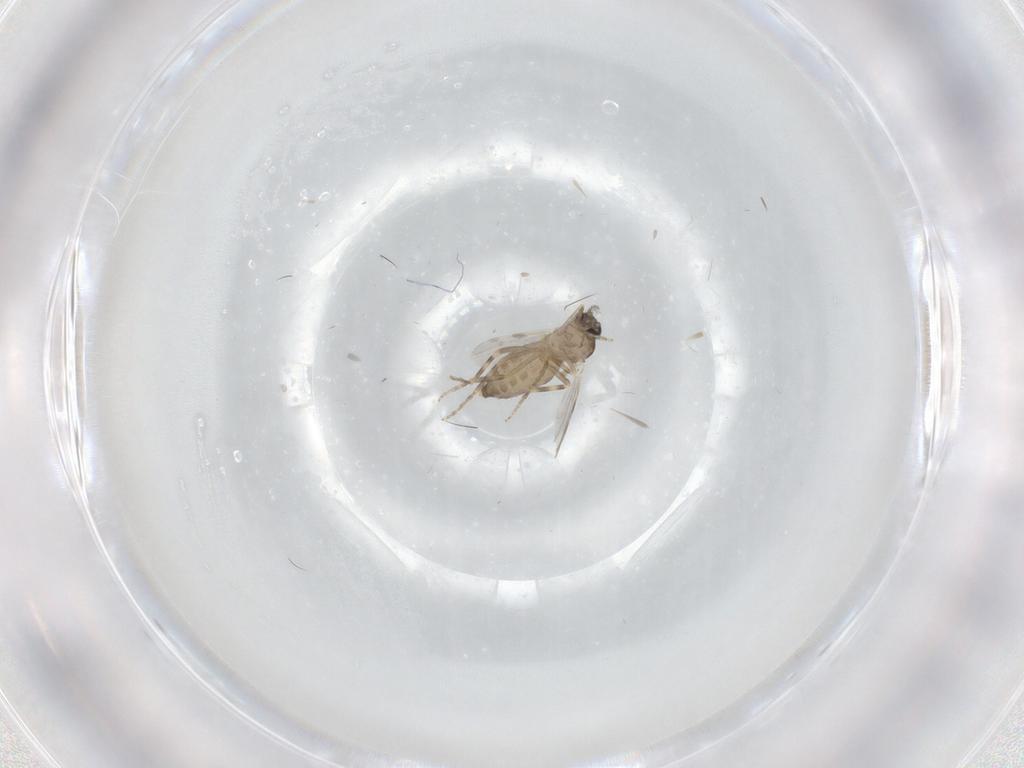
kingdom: Animalia
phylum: Arthropoda
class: Insecta
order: Diptera
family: Ceratopogonidae
